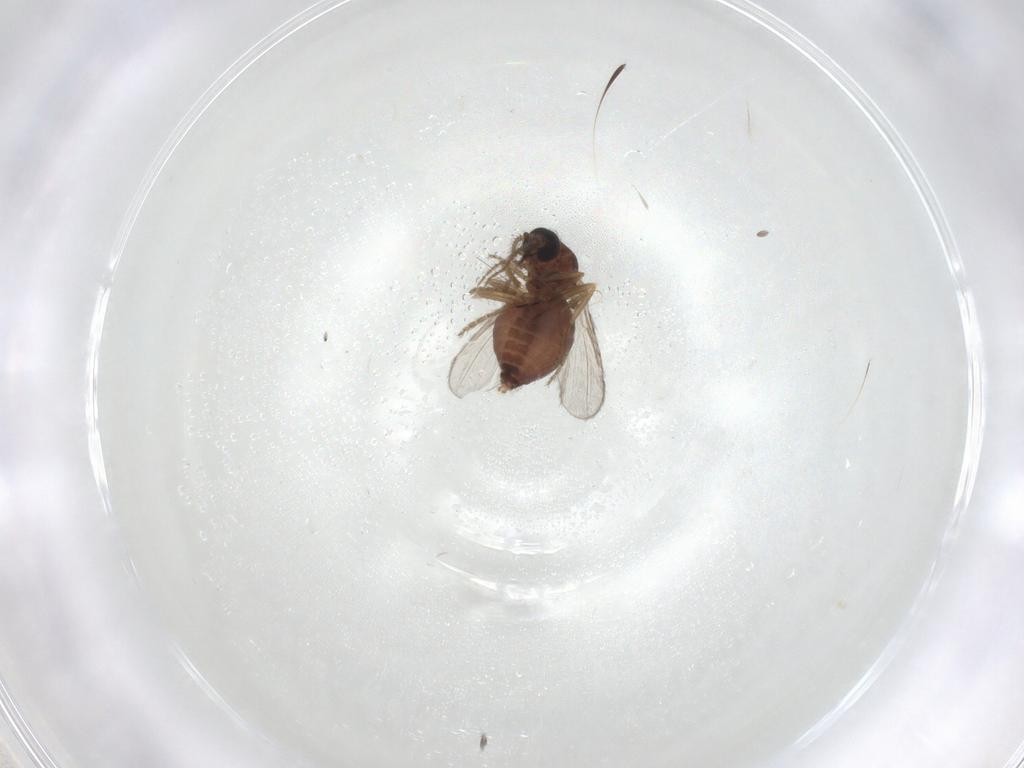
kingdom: Animalia
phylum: Arthropoda
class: Insecta
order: Diptera
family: Ceratopogonidae
